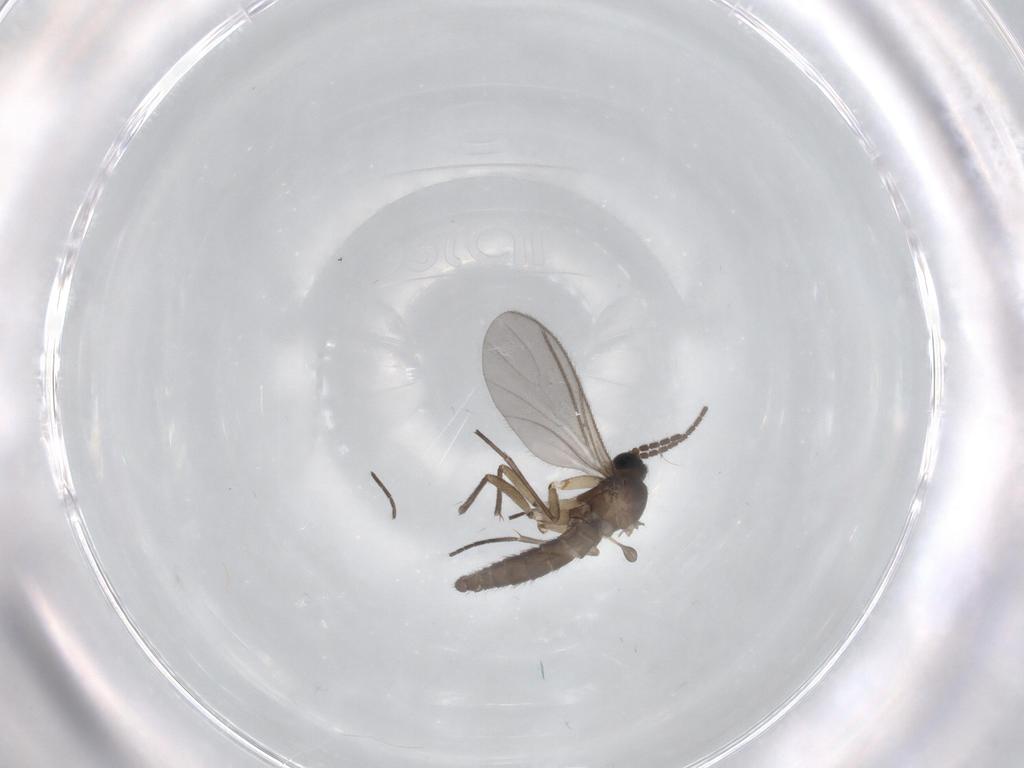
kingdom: Animalia
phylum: Arthropoda
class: Insecta
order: Diptera
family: Sciaridae
